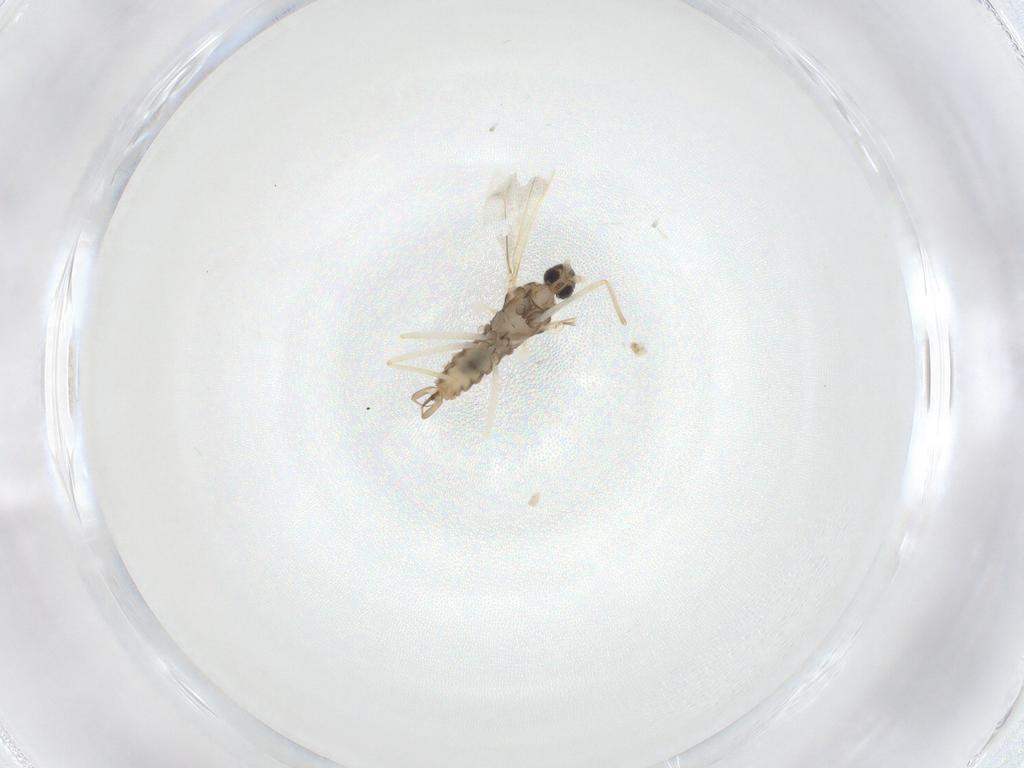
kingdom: Animalia
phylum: Arthropoda
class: Insecta
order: Diptera
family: Cecidomyiidae
